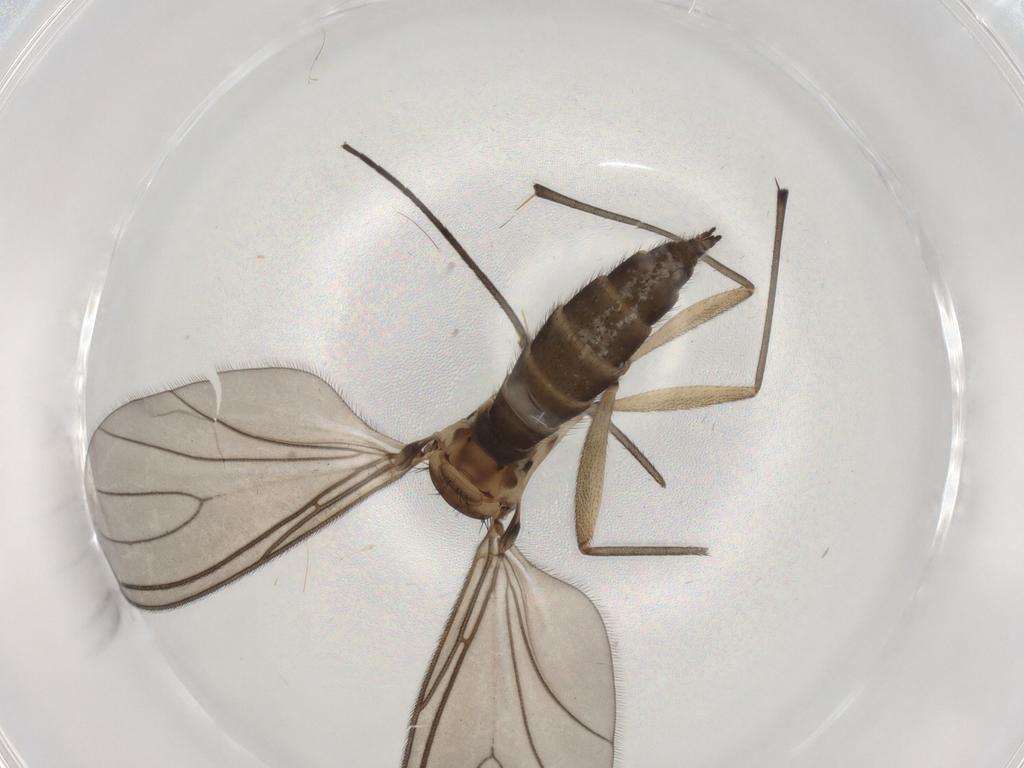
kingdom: Animalia
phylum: Arthropoda
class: Insecta
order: Diptera
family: Sciaridae
